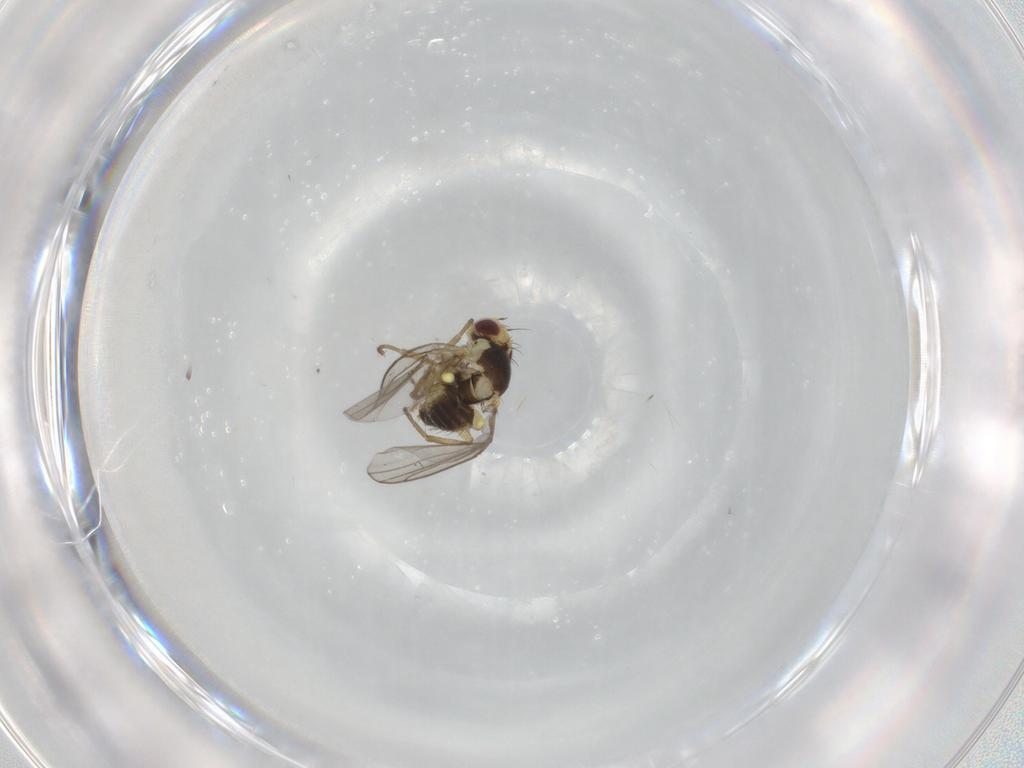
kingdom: Animalia
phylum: Arthropoda
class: Insecta
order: Diptera
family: Agromyzidae
